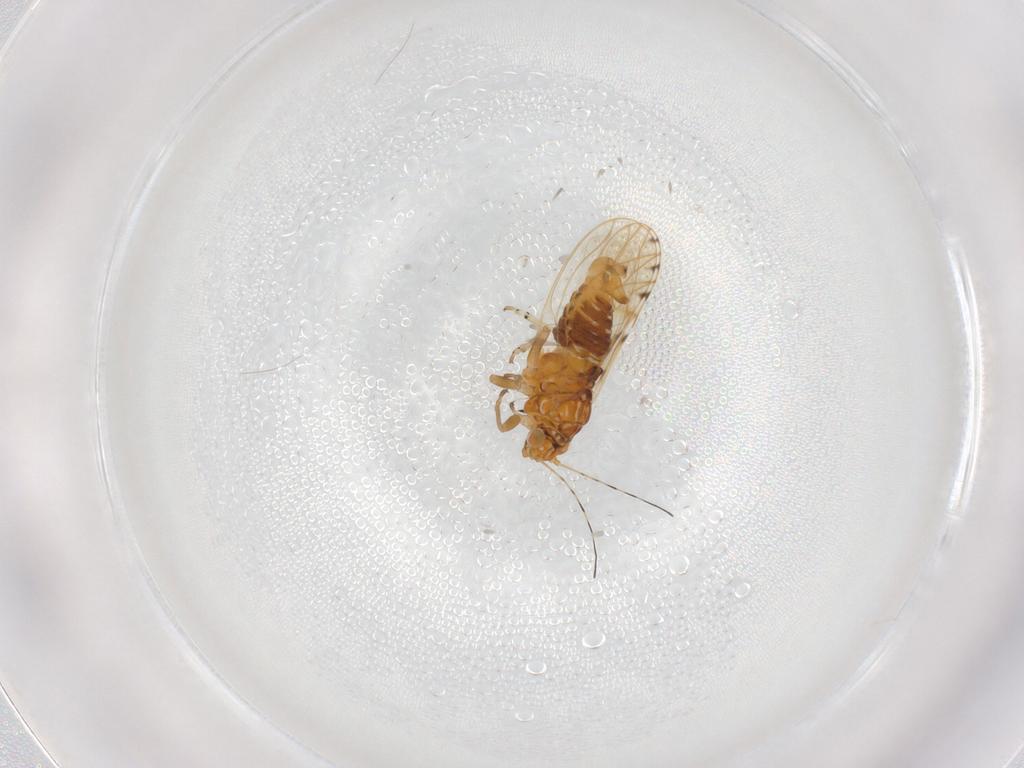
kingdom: Animalia
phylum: Arthropoda
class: Insecta
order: Hemiptera
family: Psylloidea_incertae_sedis
